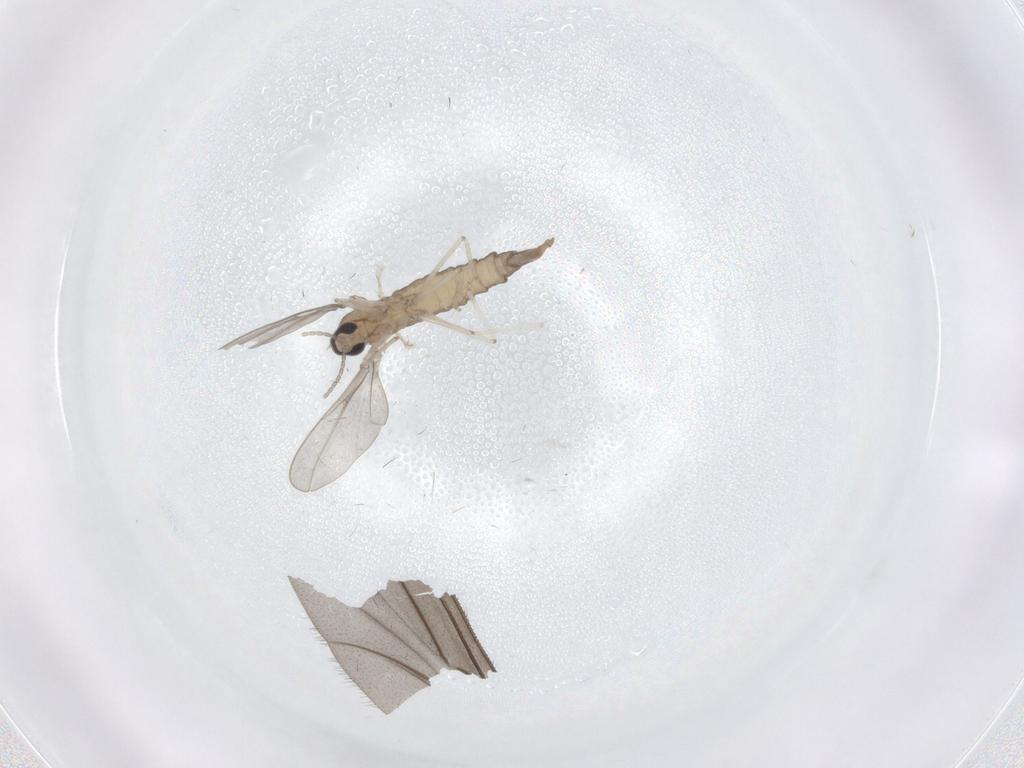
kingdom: Animalia
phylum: Arthropoda
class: Insecta
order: Diptera
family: Cecidomyiidae
